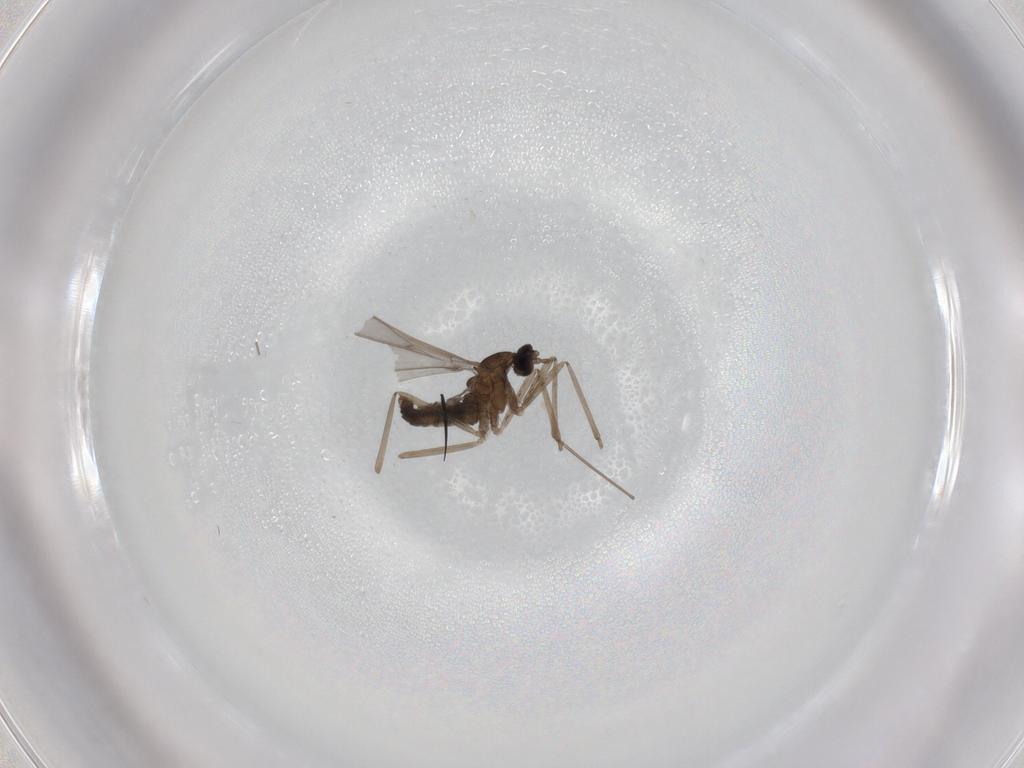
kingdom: Animalia
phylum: Arthropoda
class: Insecta
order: Diptera
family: Cecidomyiidae
